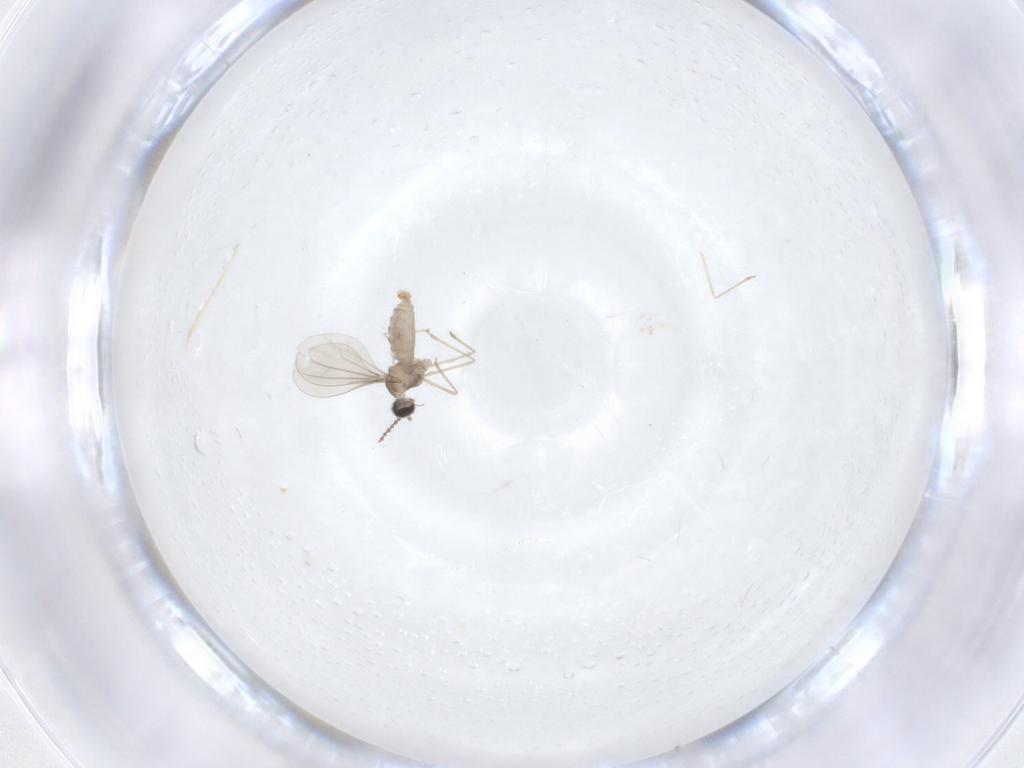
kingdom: Animalia
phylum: Arthropoda
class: Insecta
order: Diptera
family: Cecidomyiidae
